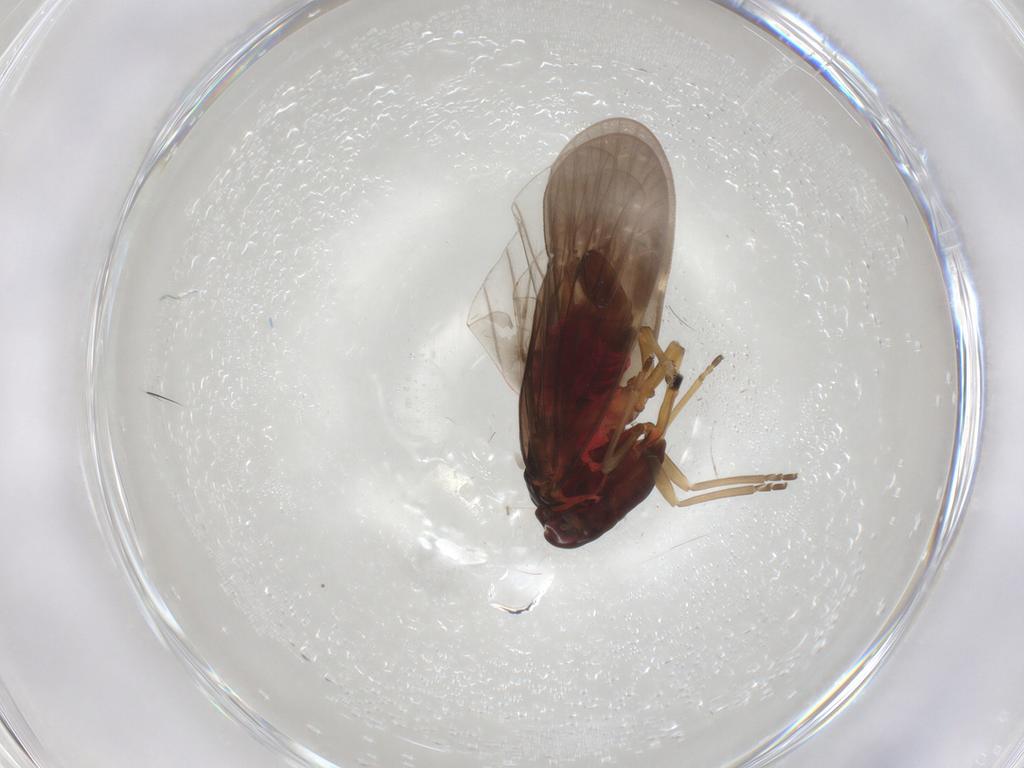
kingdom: Animalia
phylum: Arthropoda
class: Insecta
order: Hemiptera
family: Derbidae
